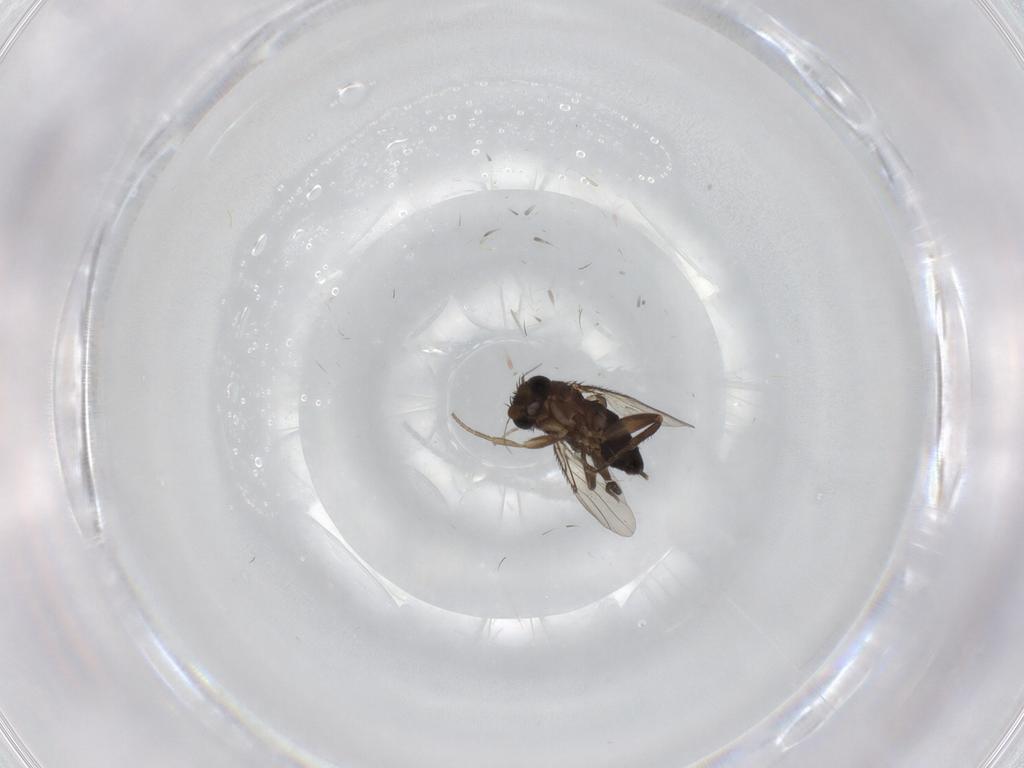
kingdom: Animalia
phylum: Arthropoda
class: Insecta
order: Diptera
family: Phoridae
